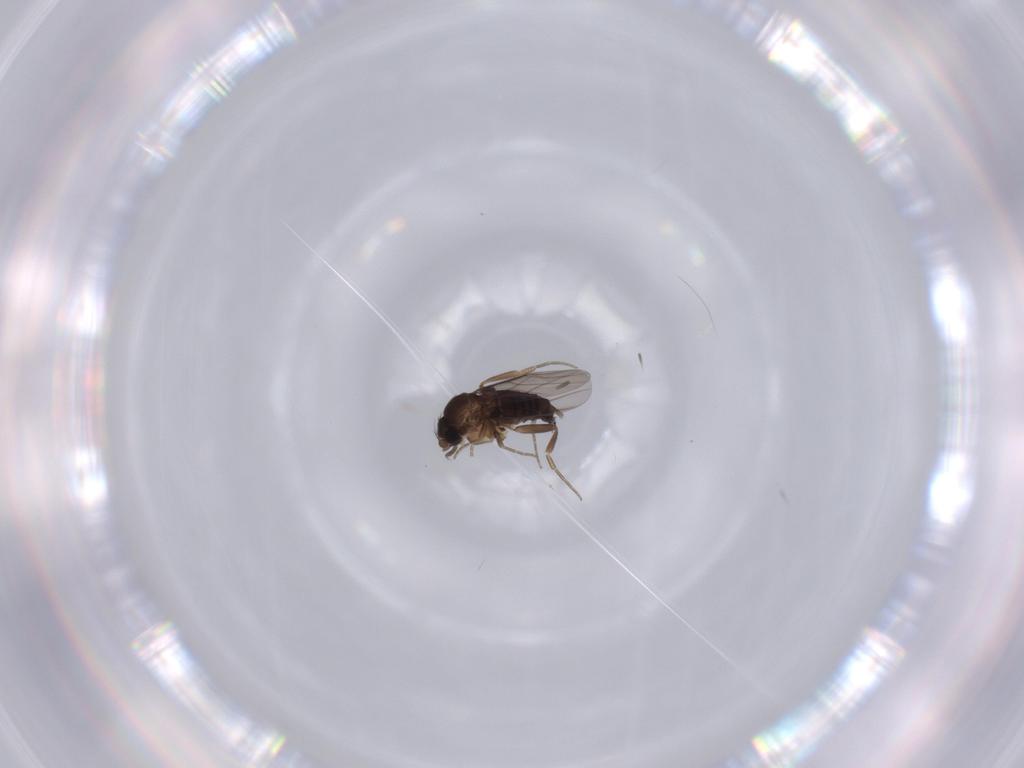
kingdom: Animalia
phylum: Arthropoda
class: Insecta
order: Diptera
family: Phoridae
